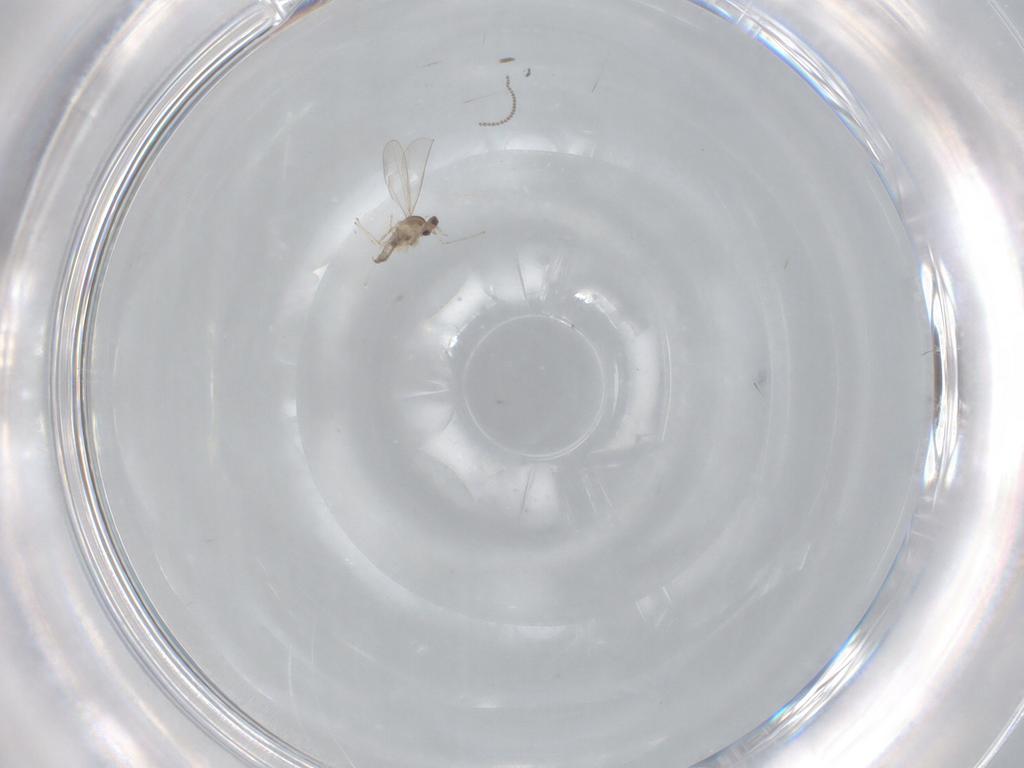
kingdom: Animalia
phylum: Arthropoda
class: Insecta
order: Diptera
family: Cecidomyiidae
